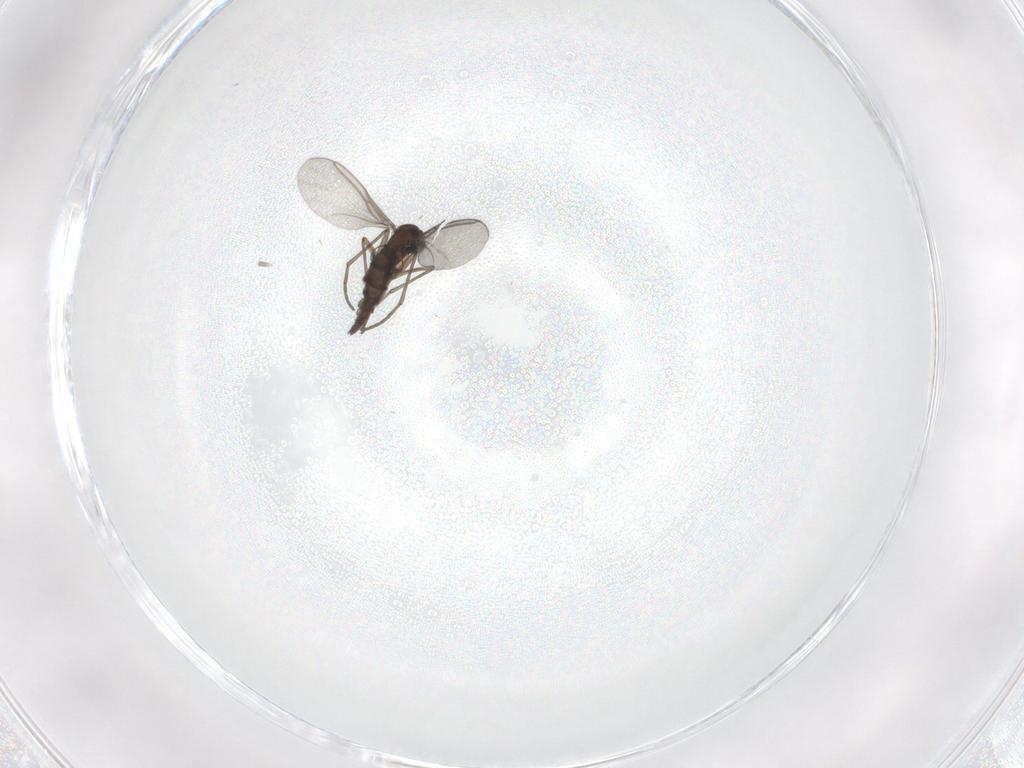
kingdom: Animalia
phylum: Arthropoda
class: Insecta
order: Diptera
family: Chironomidae
